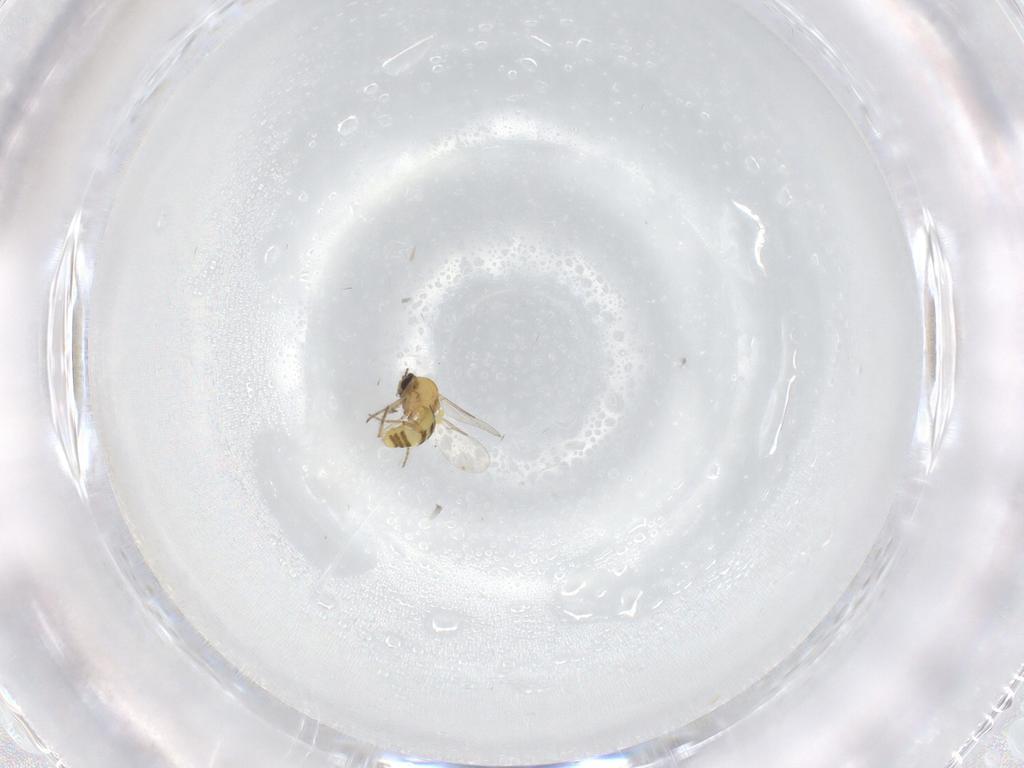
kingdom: Animalia
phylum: Arthropoda
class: Insecta
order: Diptera
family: Ceratopogonidae
